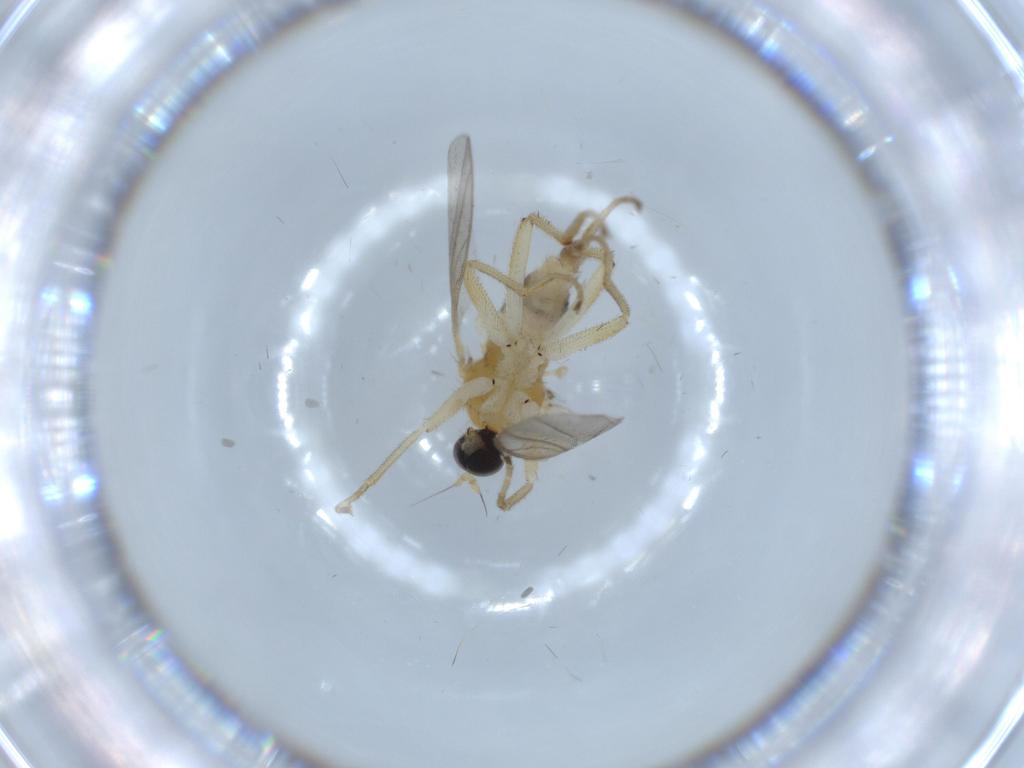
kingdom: Animalia
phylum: Arthropoda
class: Insecta
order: Diptera
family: Hybotidae
